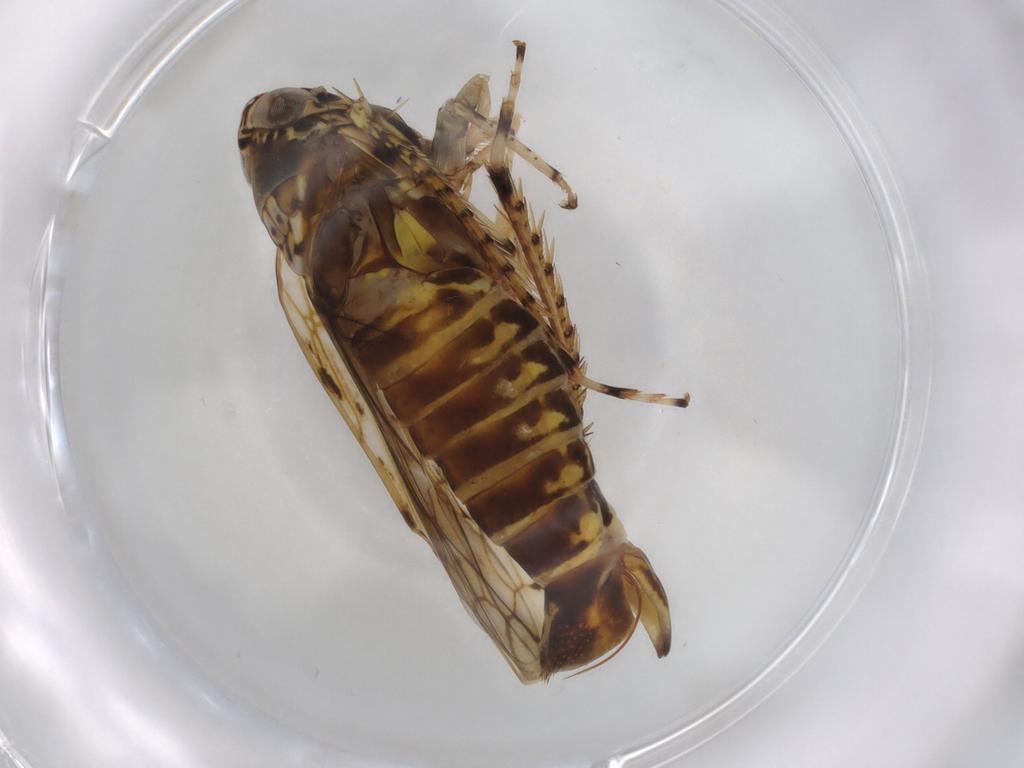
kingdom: Animalia
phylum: Arthropoda
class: Insecta
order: Hemiptera
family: Cicadellidae
